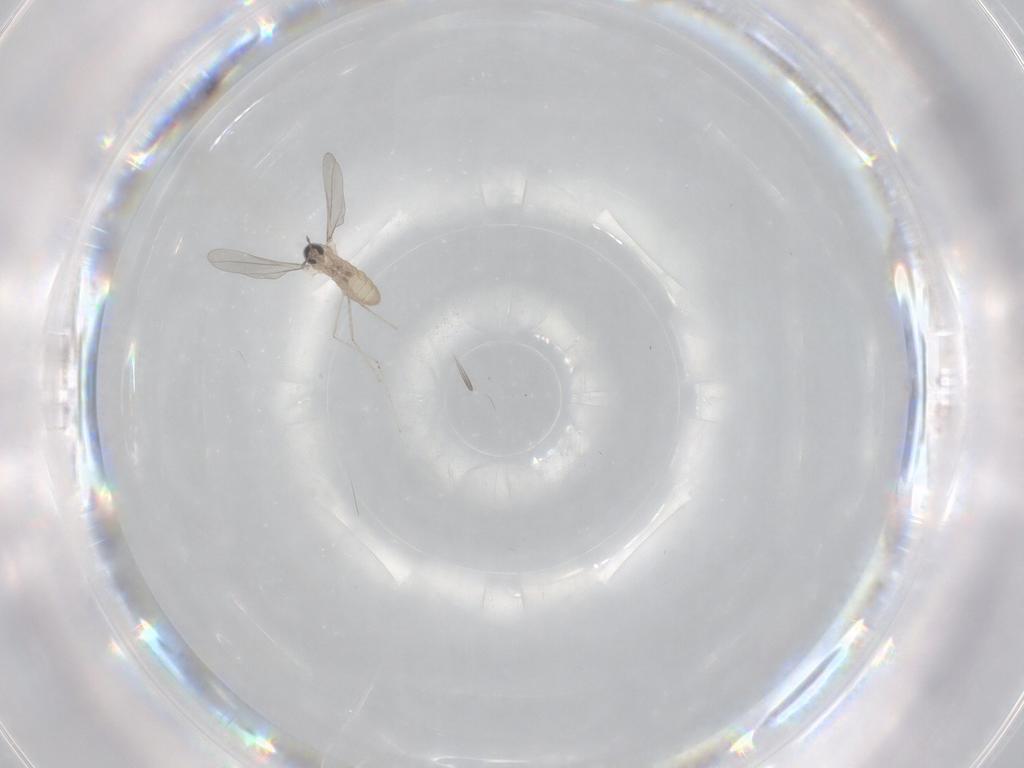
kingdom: Animalia
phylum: Arthropoda
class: Insecta
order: Diptera
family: Cecidomyiidae
